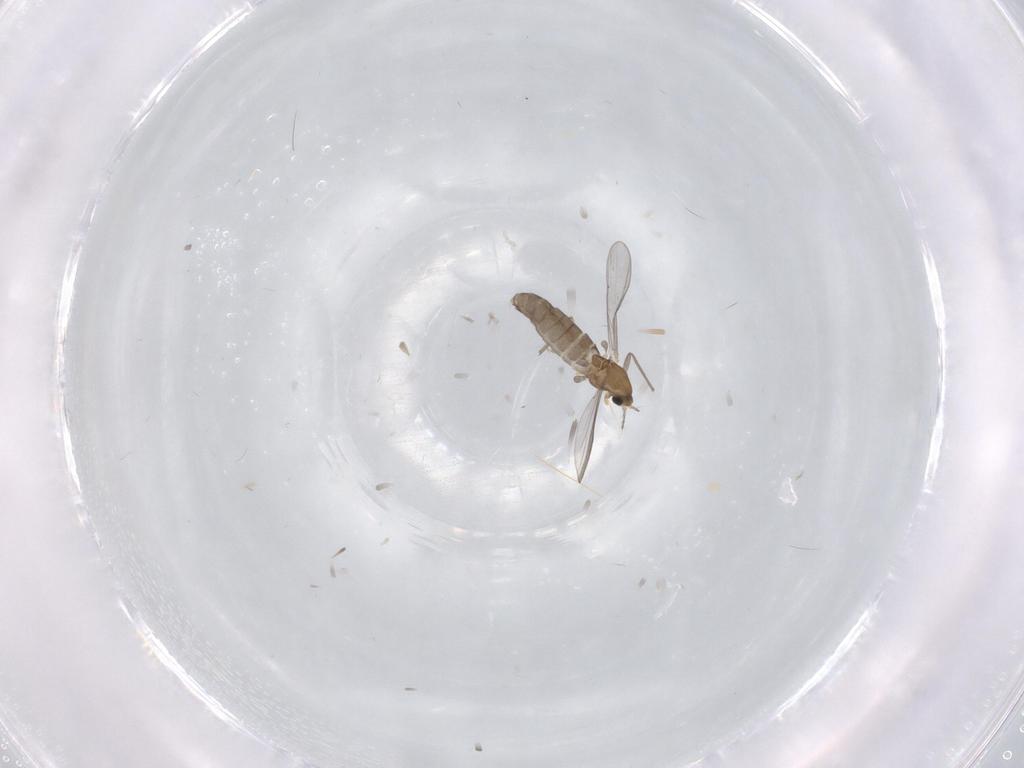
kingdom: Animalia
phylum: Arthropoda
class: Insecta
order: Diptera
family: Chironomidae
